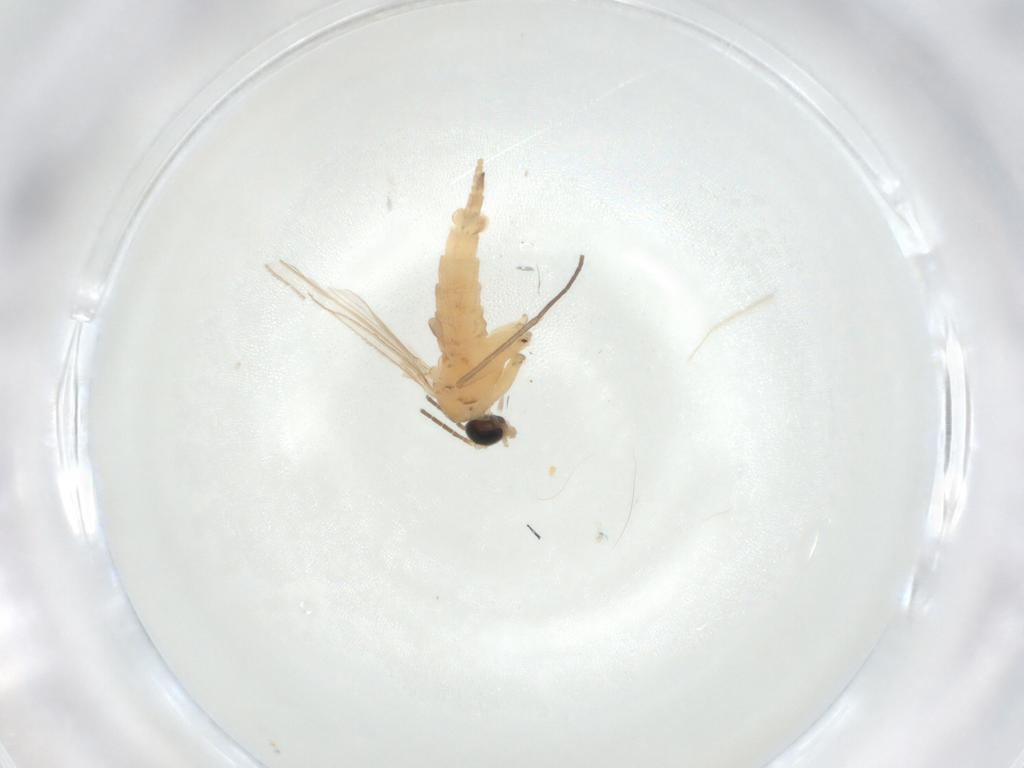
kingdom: Animalia
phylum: Arthropoda
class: Insecta
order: Diptera
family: Sciaridae
